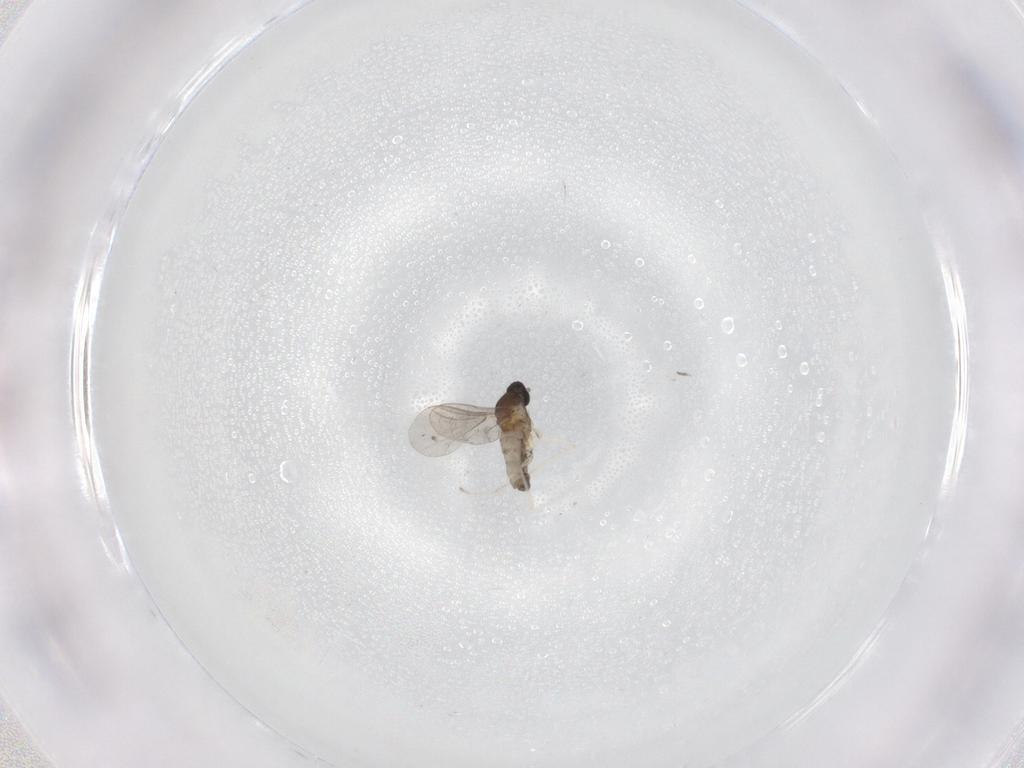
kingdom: Animalia
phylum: Arthropoda
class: Insecta
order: Diptera
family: Cecidomyiidae
